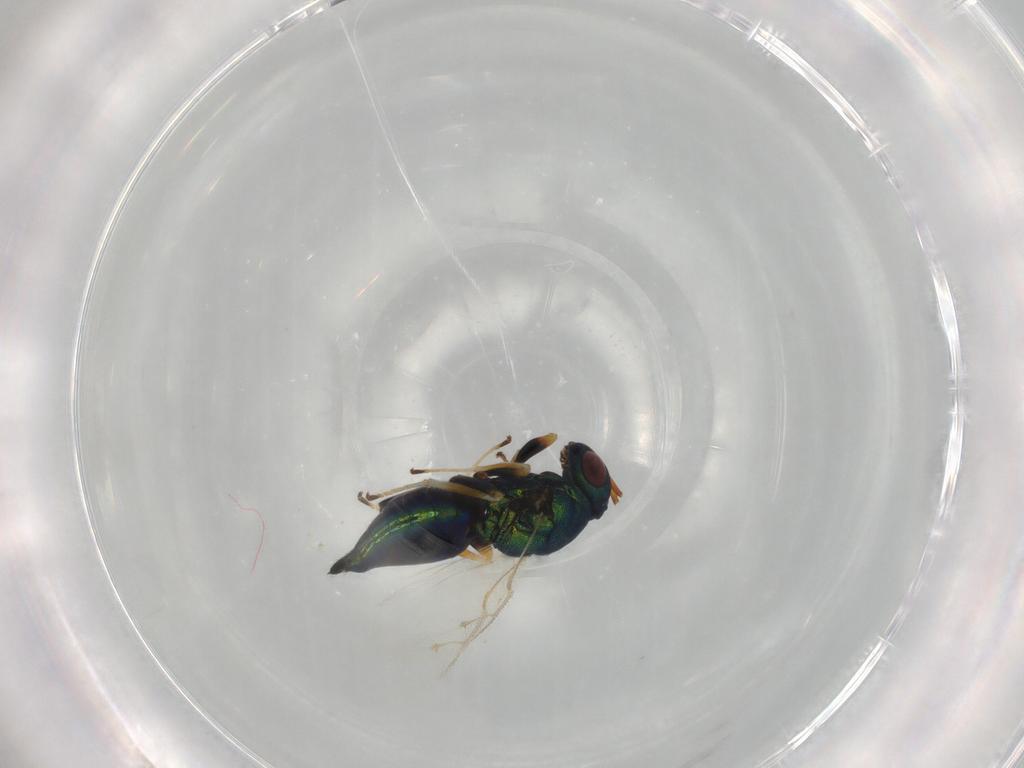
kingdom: Animalia
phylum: Arthropoda
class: Insecta
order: Hymenoptera
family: Pteromalidae
